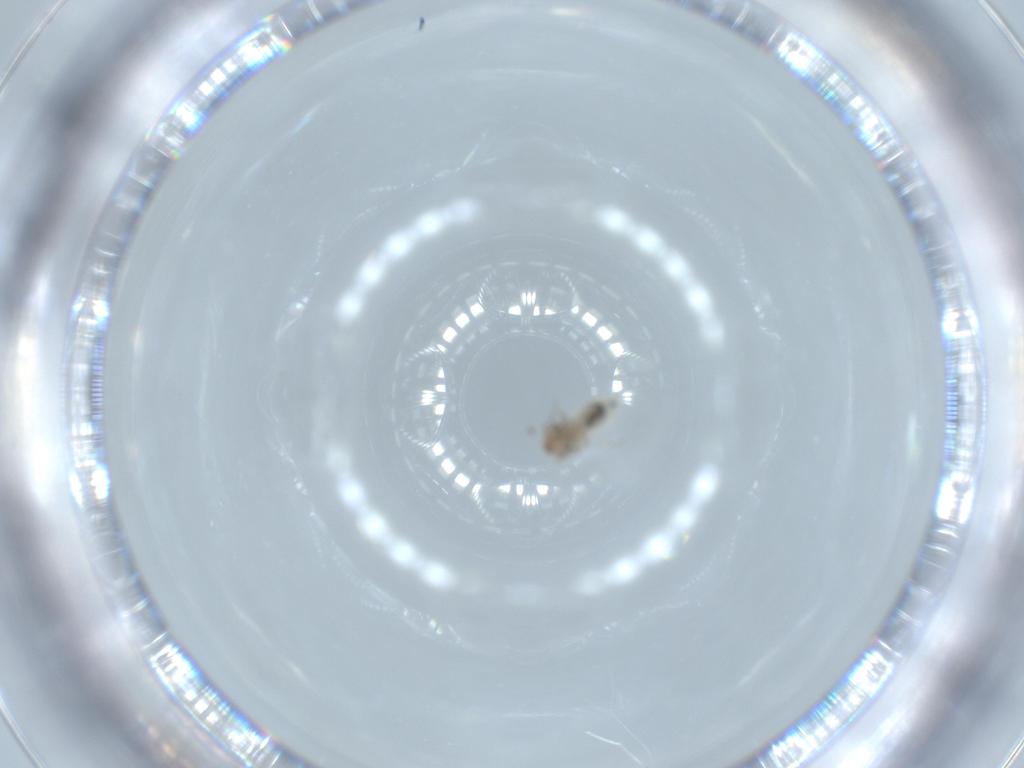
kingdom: Animalia
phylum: Arthropoda
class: Insecta
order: Psocodea
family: Lepidopsocidae
